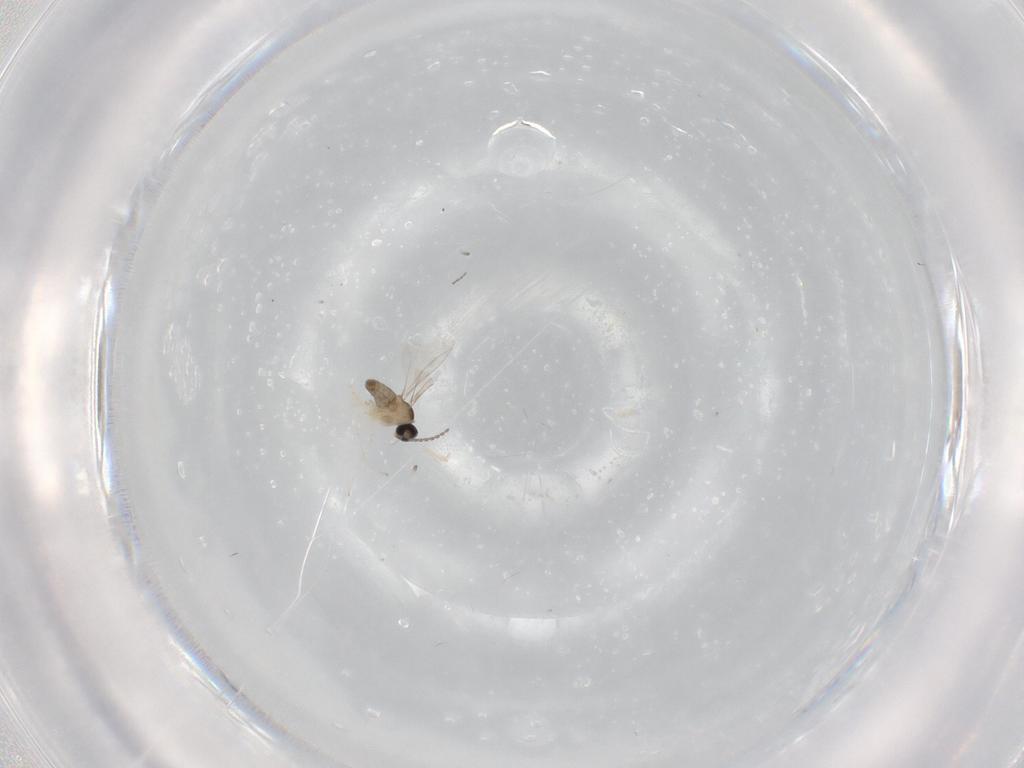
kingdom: Animalia
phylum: Arthropoda
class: Insecta
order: Diptera
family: Cecidomyiidae
